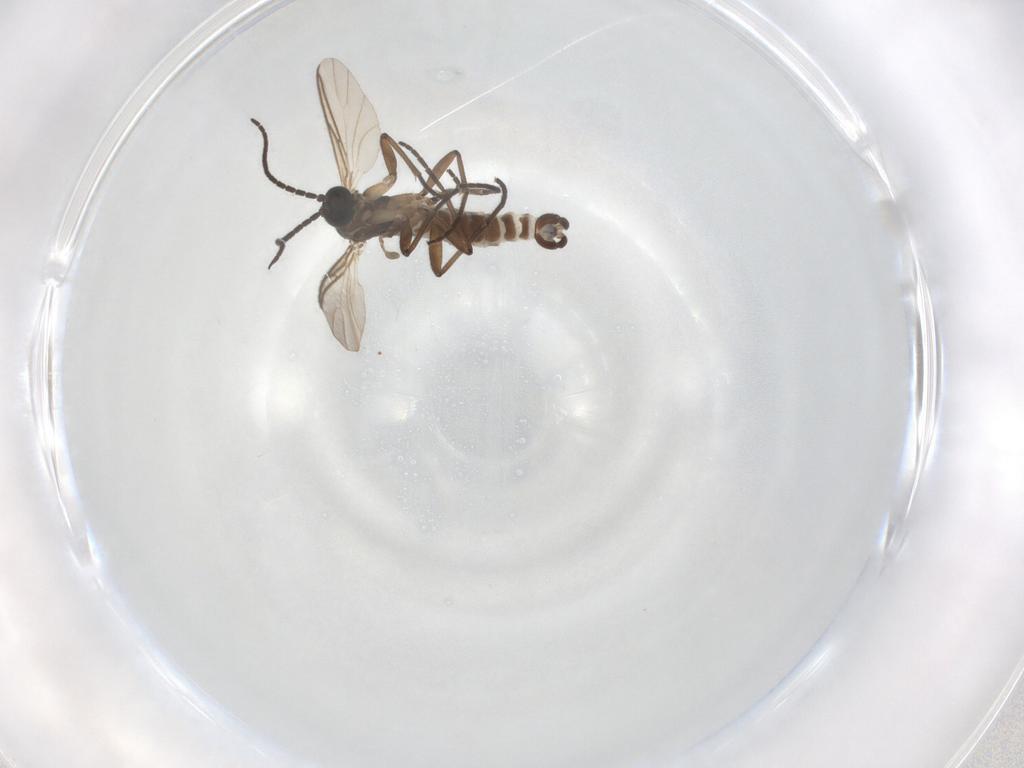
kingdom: Animalia
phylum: Arthropoda
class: Insecta
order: Diptera
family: Sciaridae
